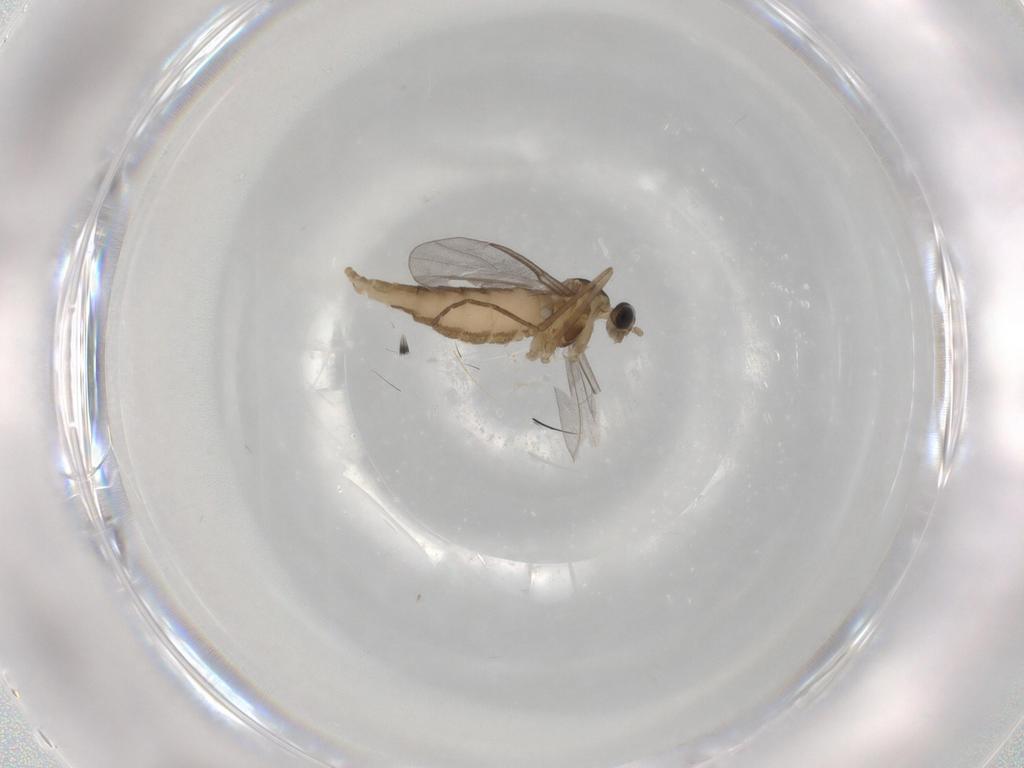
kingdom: Animalia
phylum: Arthropoda
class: Insecta
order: Diptera
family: Cecidomyiidae
